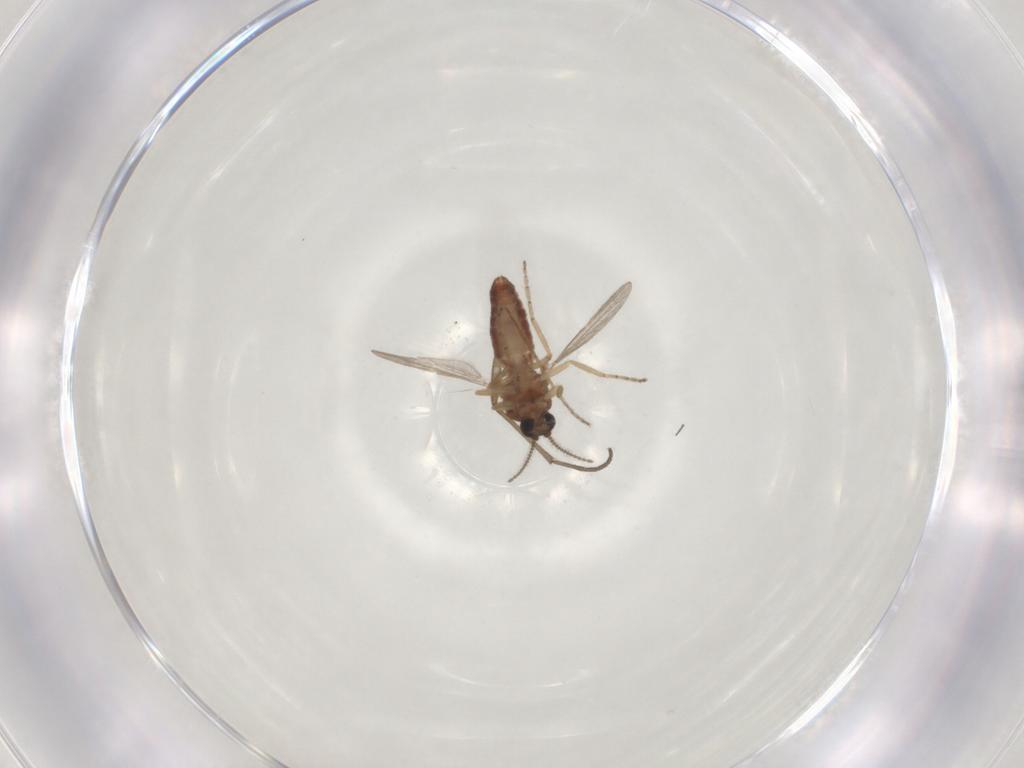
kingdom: Animalia
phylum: Arthropoda
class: Insecta
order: Diptera
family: Ceratopogonidae
